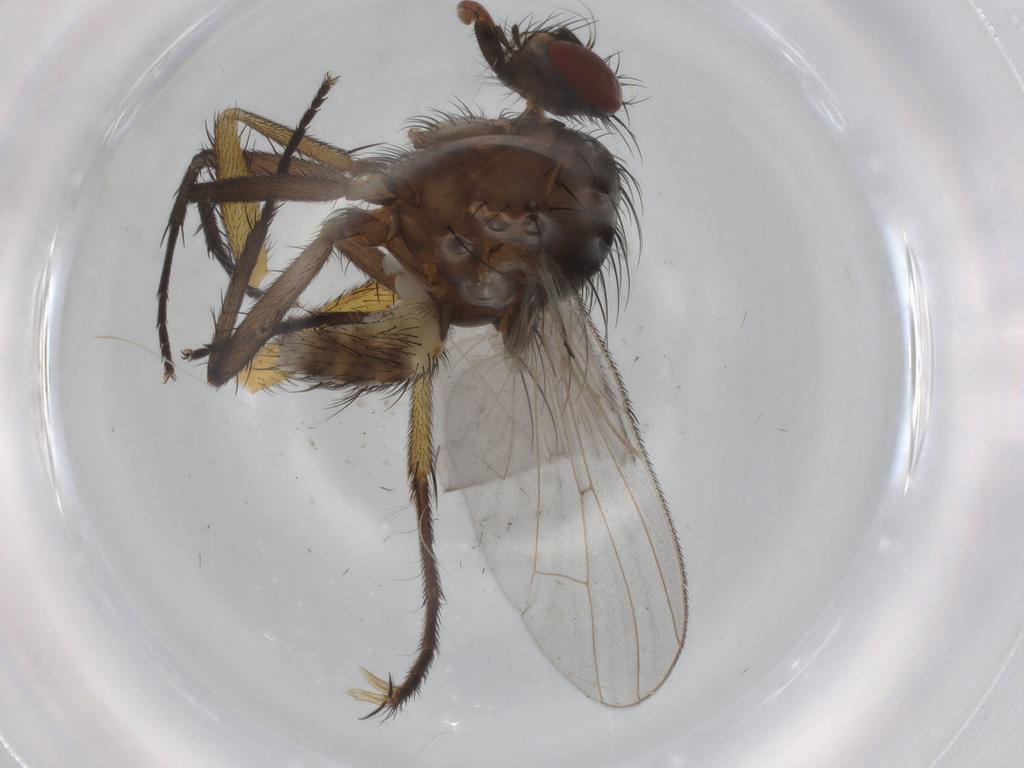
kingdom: Animalia
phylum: Arthropoda
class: Insecta
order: Diptera
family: Anthomyiidae
